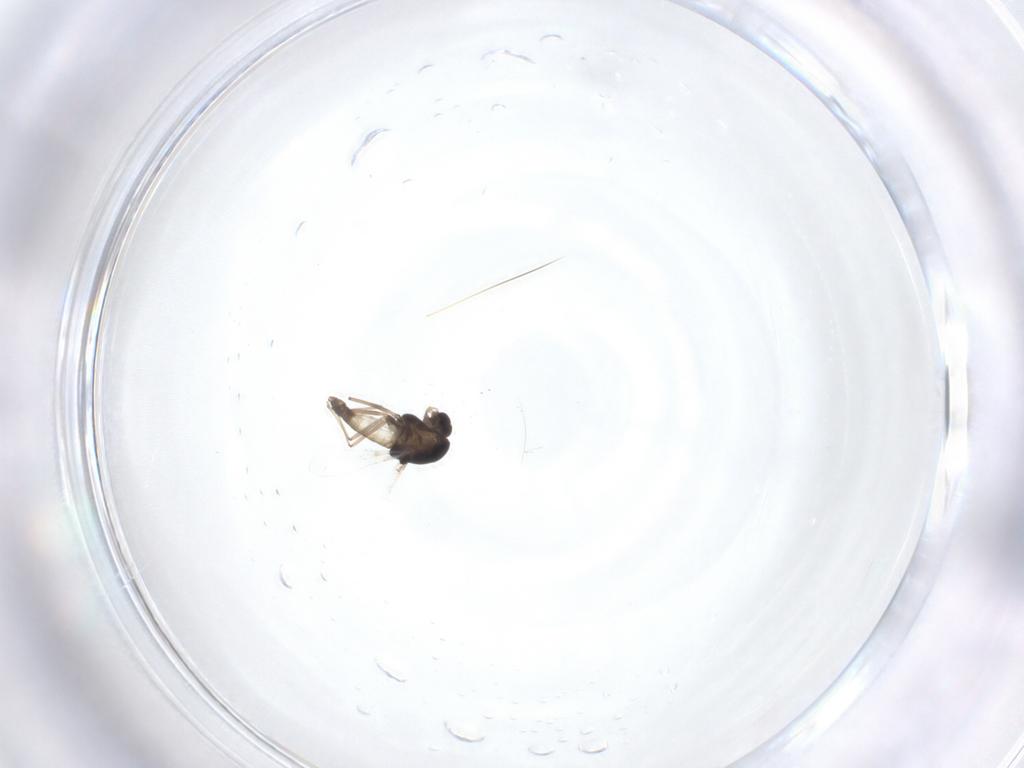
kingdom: Animalia
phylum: Arthropoda
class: Insecta
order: Diptera
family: Chironomidae
